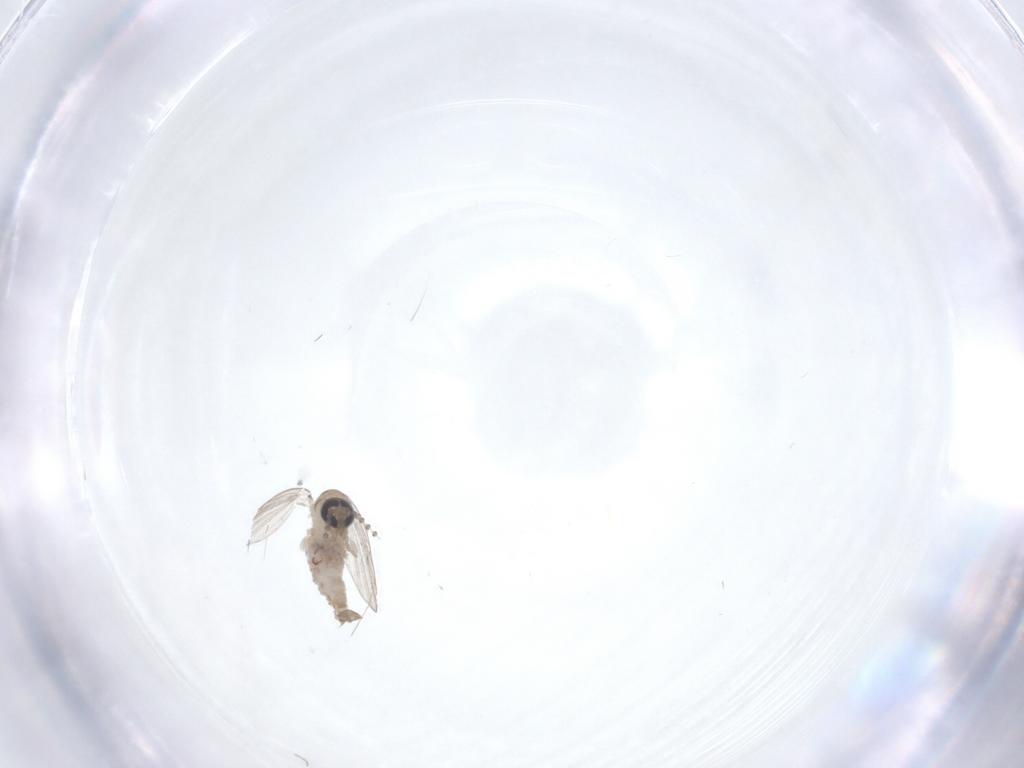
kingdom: Animalia
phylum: Arthropoda
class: Insecta
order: Diptera
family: Psychodidae
